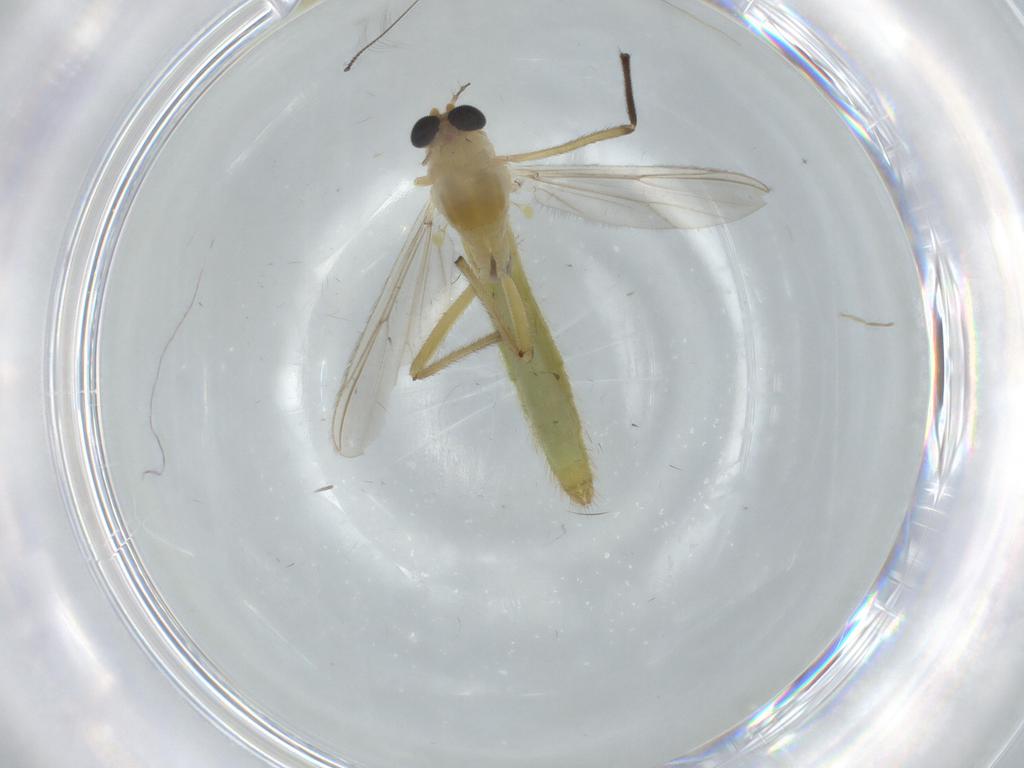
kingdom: Animalia
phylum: Arthropoda
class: Insecta
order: Diptera
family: Chironomidae
